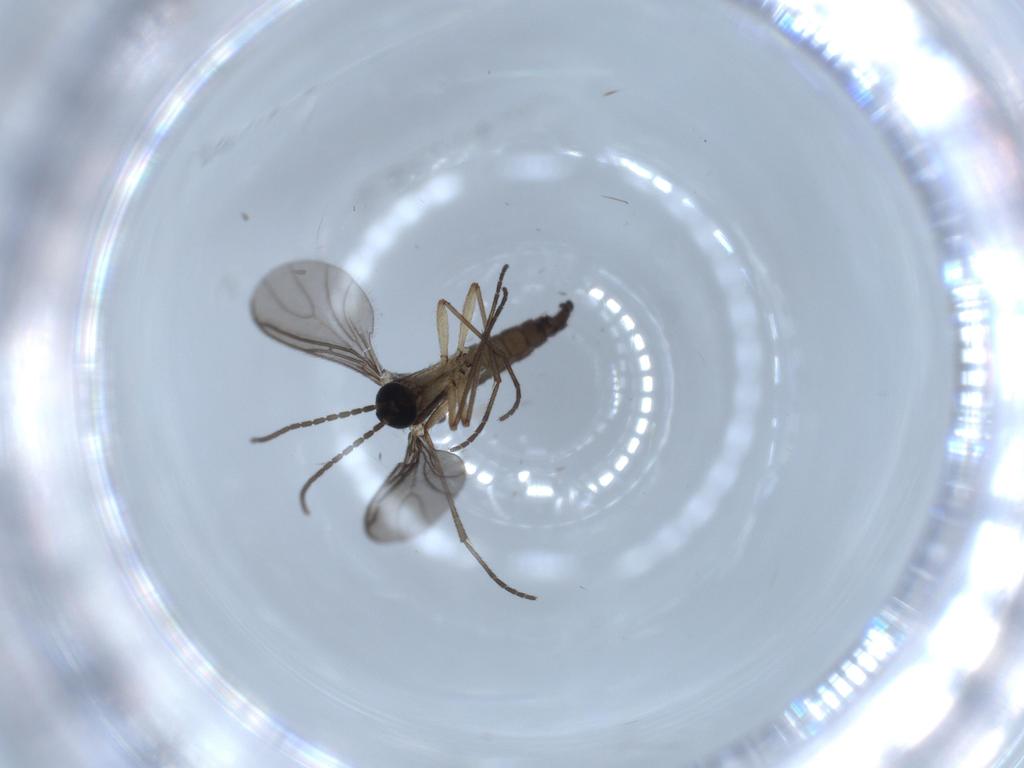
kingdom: Animalia
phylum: Arthropoda
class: Insecta
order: Diptera
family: Sciaridae
